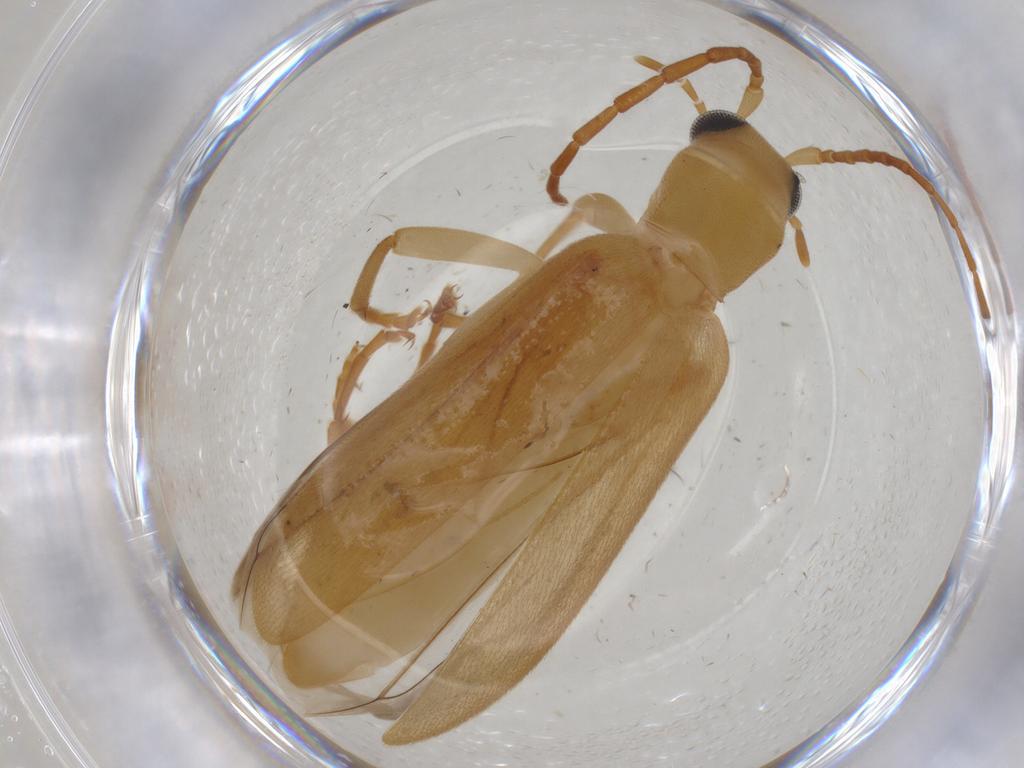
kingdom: Animalia
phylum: Arthropoda
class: Insecta
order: Coleoptera
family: Oedemeridae
